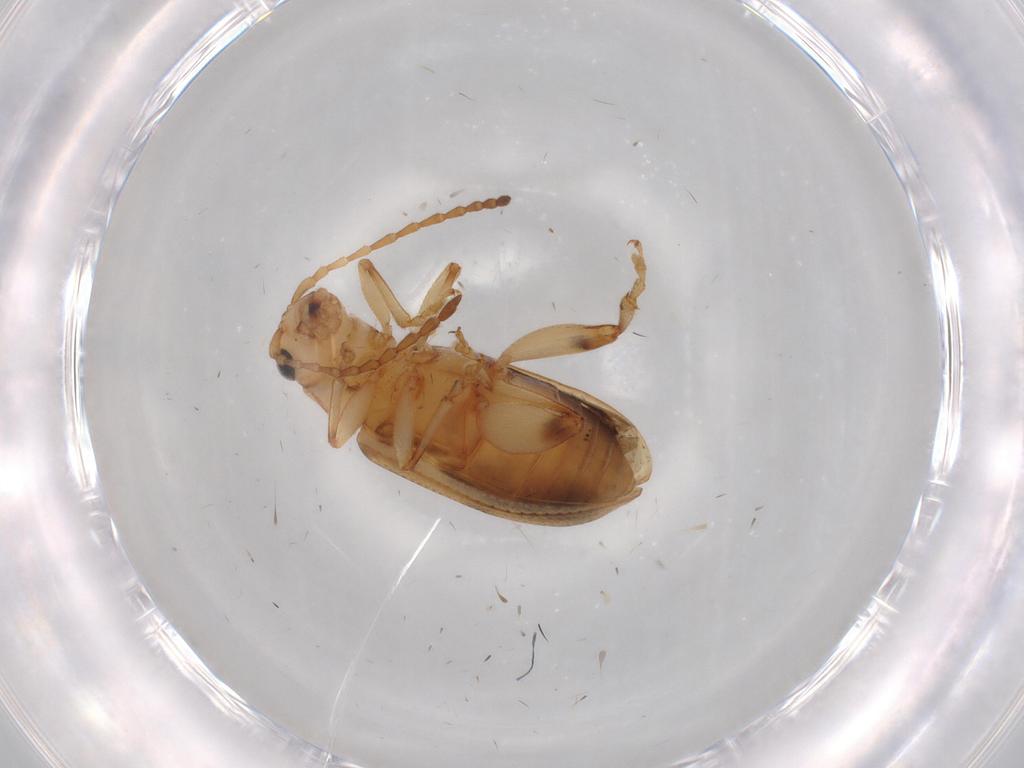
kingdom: Animalia
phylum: Arthropoda
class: Insecta
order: Coleoptera
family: Chrysomelidae
